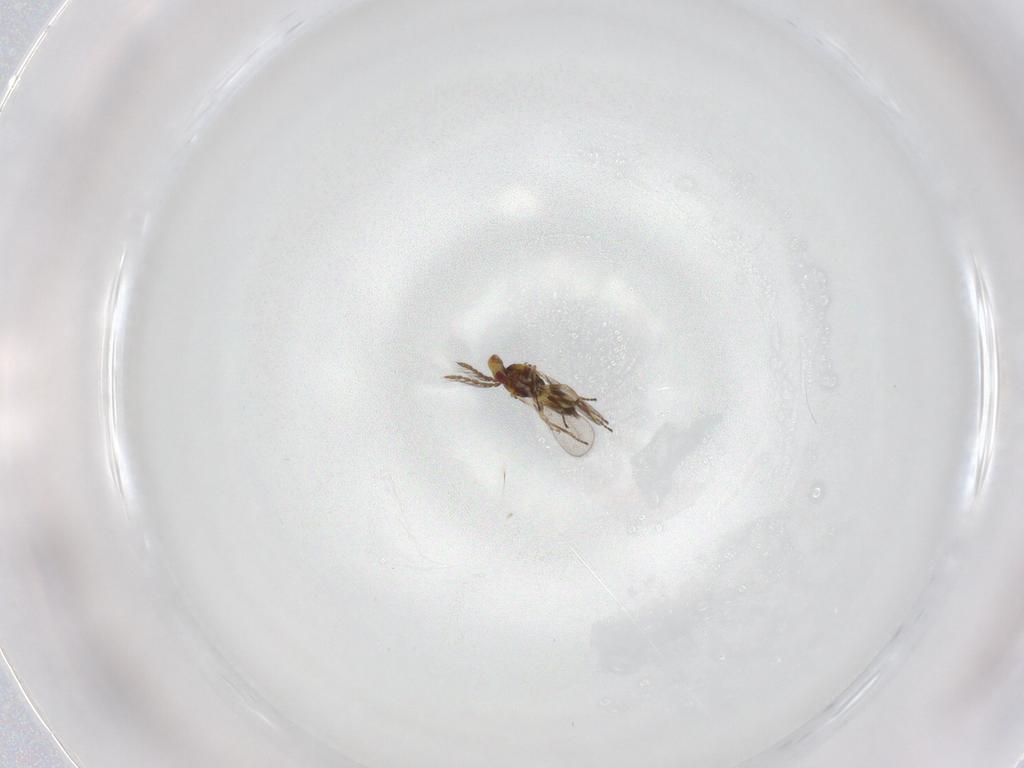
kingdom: Animalia
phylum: Arthropoda
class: Insecta
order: Hymenoptera
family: Eulophidae
